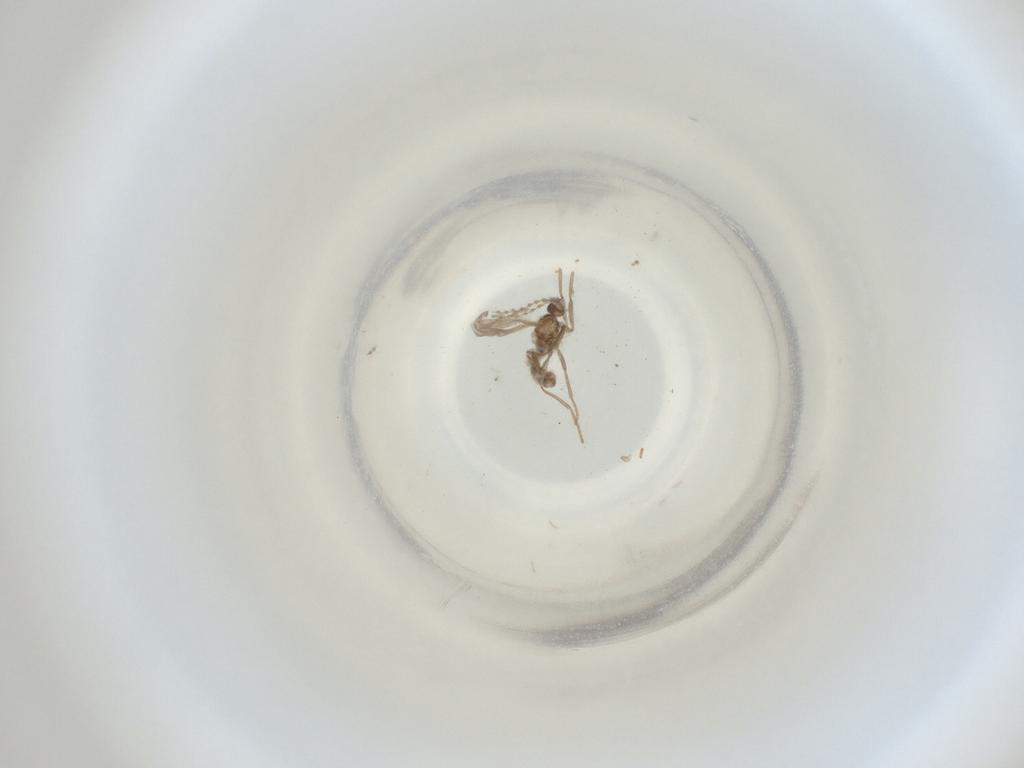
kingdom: Animalia
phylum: Arthropoda
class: Insecta
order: Diptera
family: Cecidomyiidae
